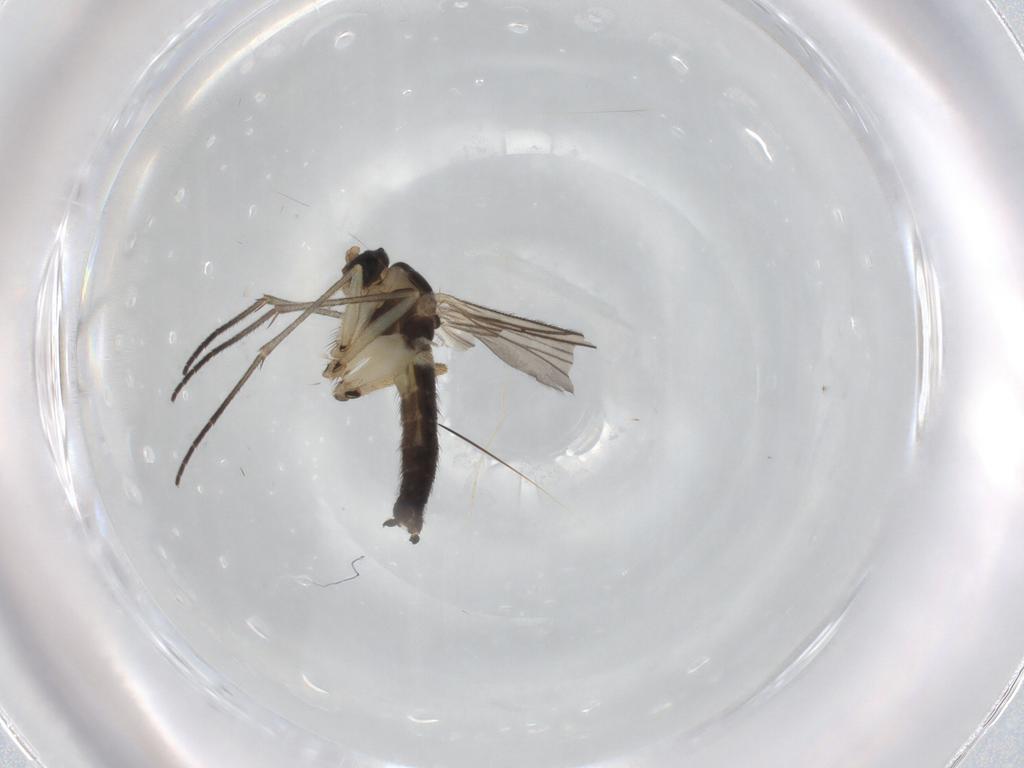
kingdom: Animalia
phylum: Arthropoda
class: Insecta
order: Diptera
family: Sciaridae
